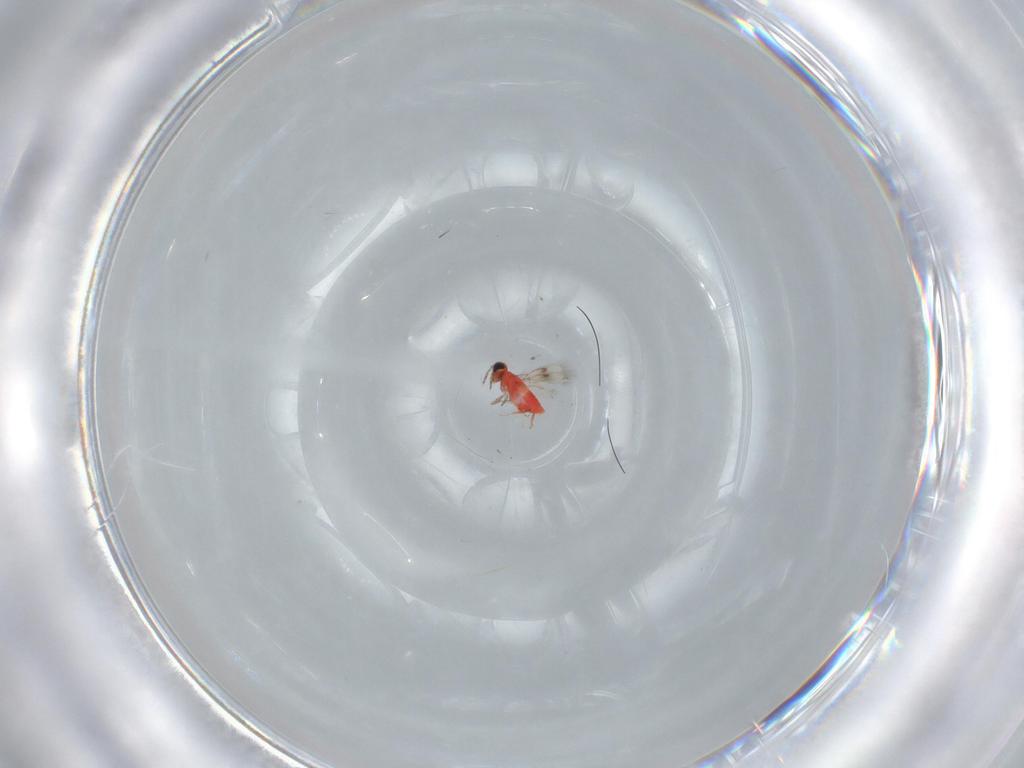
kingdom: Animalia
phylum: Arthropoda
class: Insecta
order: Hymenoptera
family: Trichogrammatidae
